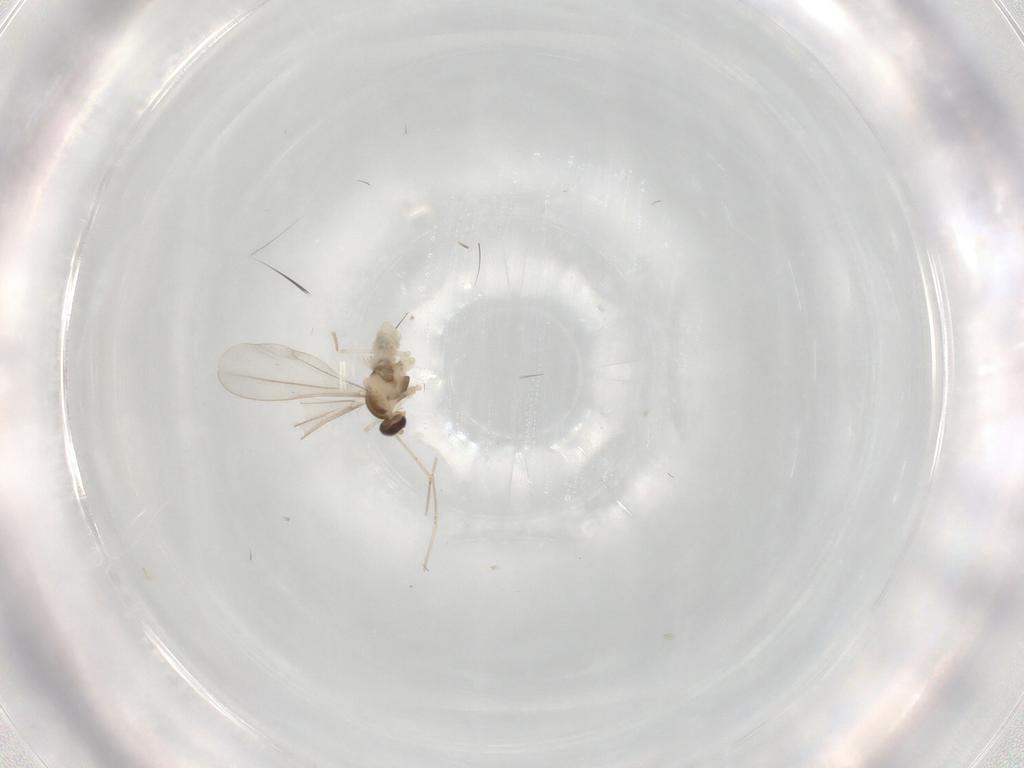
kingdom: Animalia
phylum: Arthropoda
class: Insecta
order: Diptera
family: Cecidomyiidae
